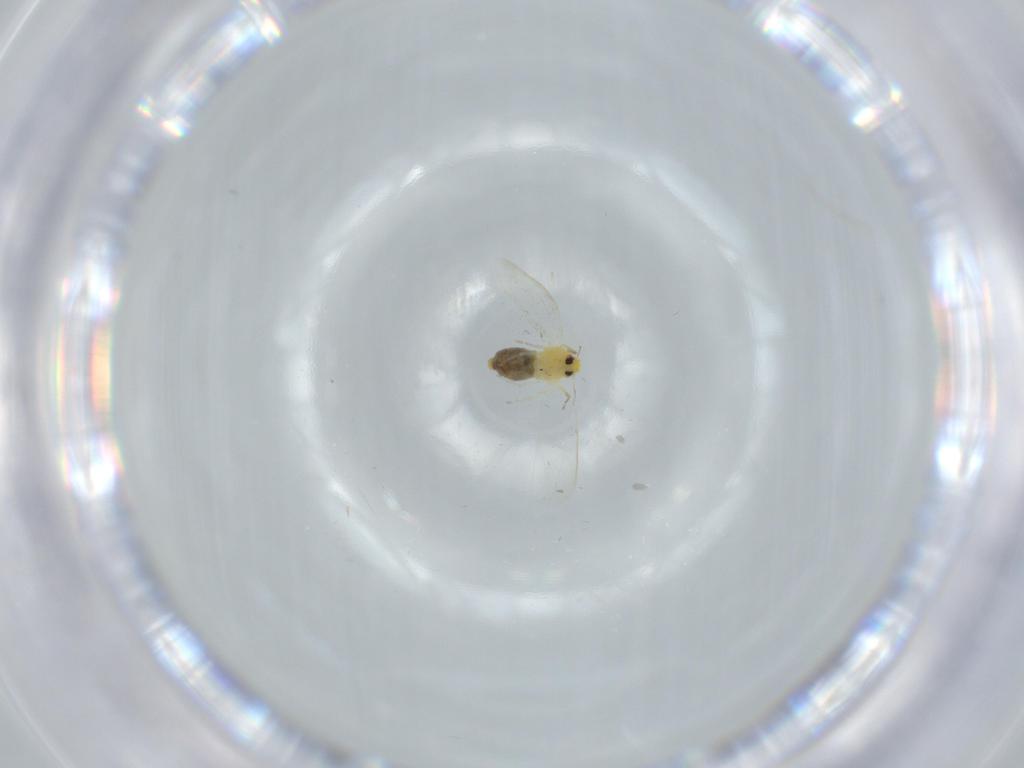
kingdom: Animalia
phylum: Arthropoda
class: Insecta
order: Hemiptera
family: Aleyrodidae
